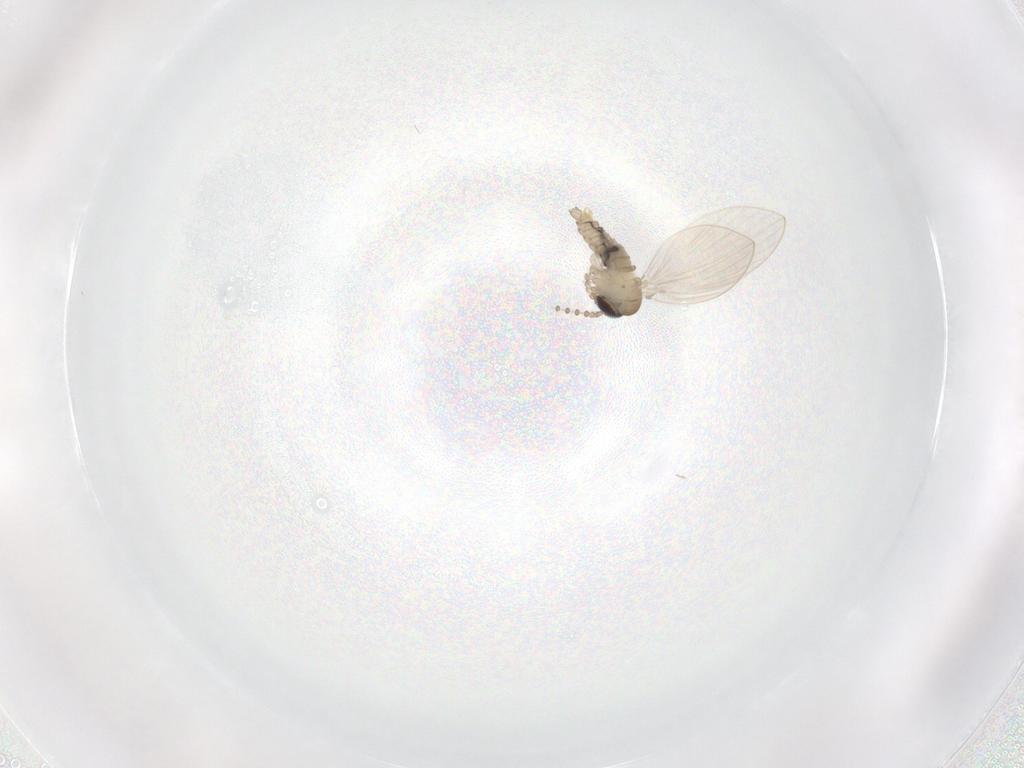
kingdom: Animalia
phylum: Arthropoda
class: Insecta
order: Diptera
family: Psychodidae
